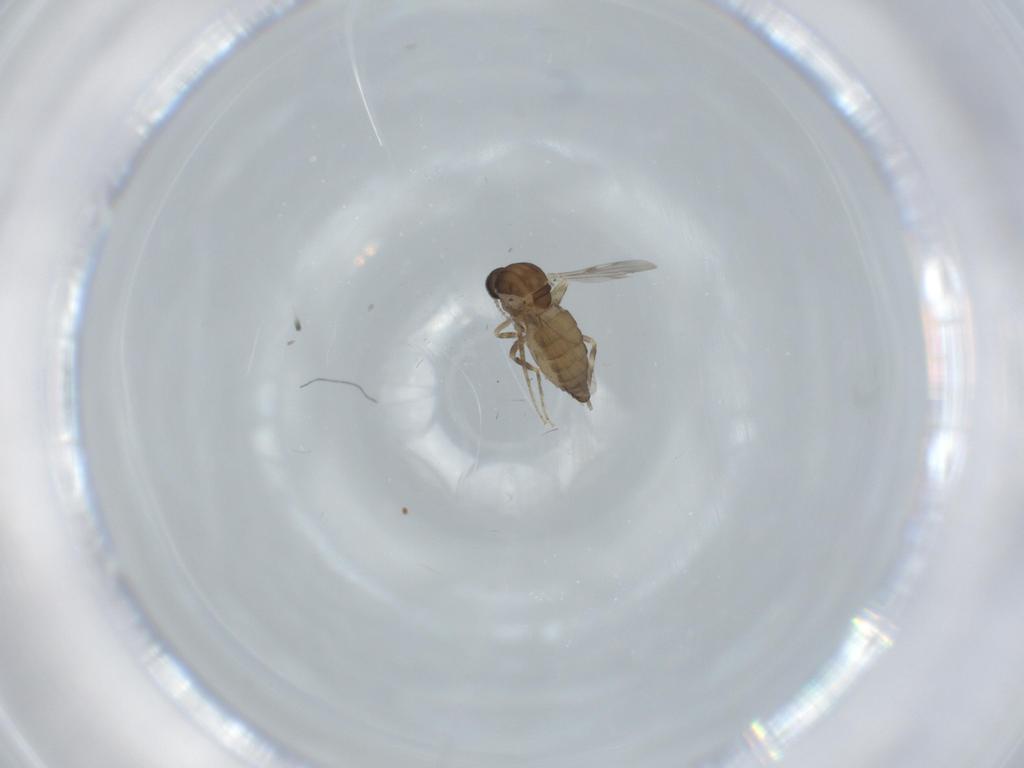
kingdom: Animalia
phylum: Arthropoda
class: Insecta
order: Diptera
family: Ceratopogonidae
